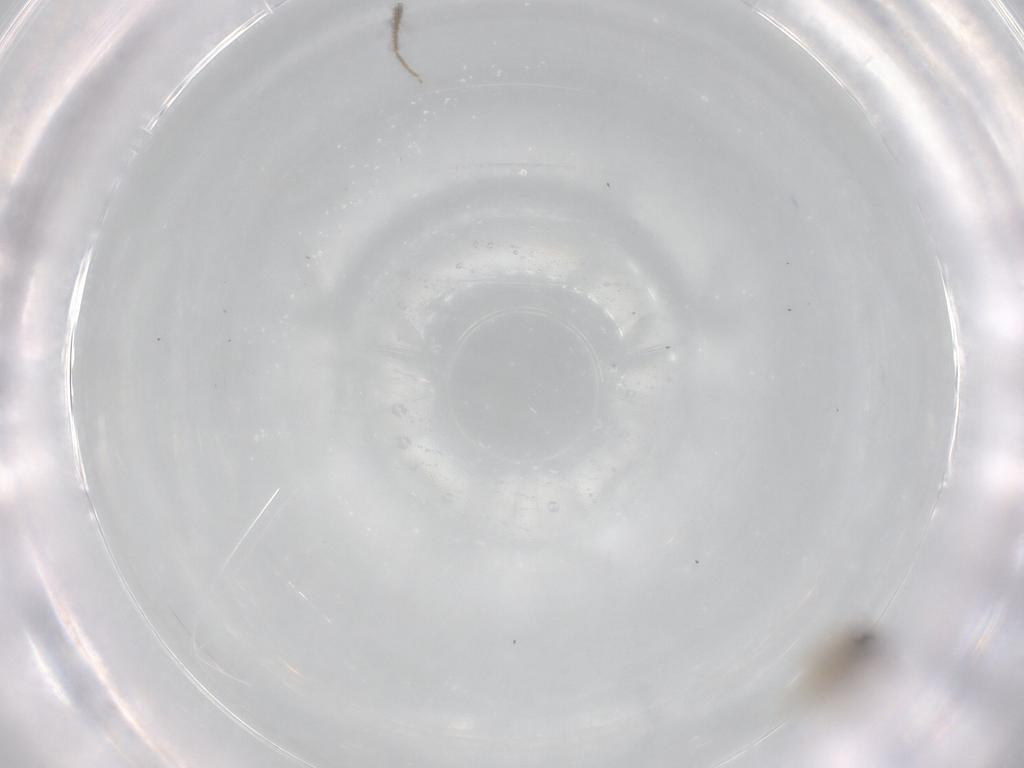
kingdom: Animalia
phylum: Arthropoda
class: Insecta
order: Diptera
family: Cecidomyiidae
